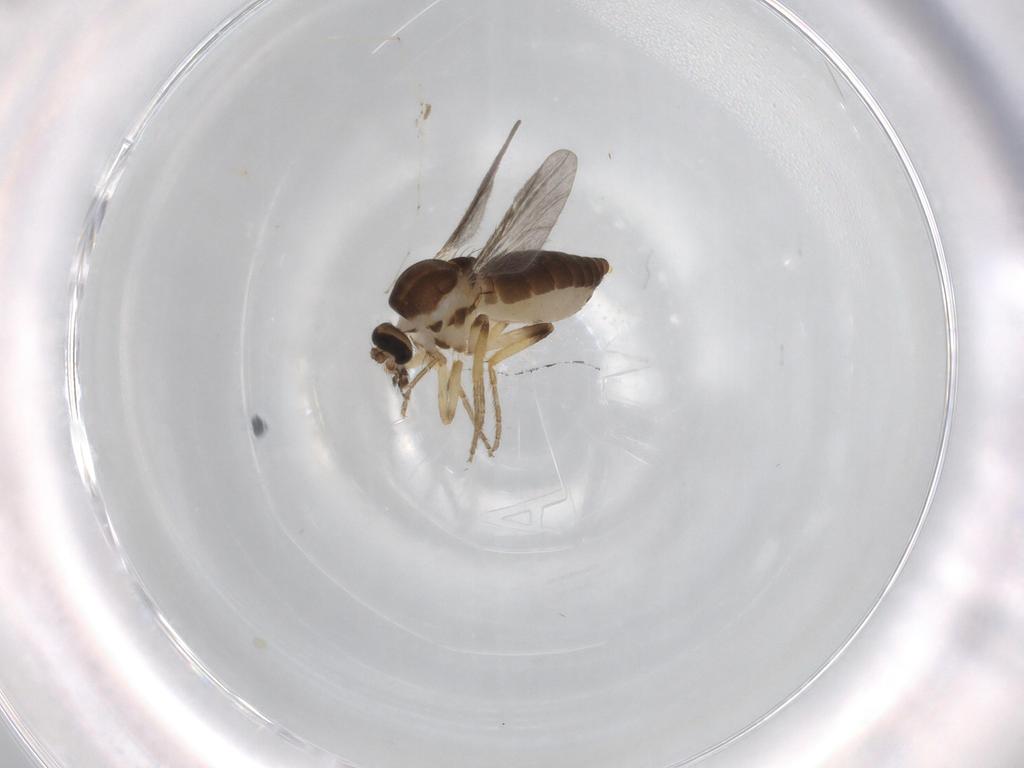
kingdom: Animalia
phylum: Arthropoda
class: Insecta
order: Diptera
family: Ceratopogonidae
